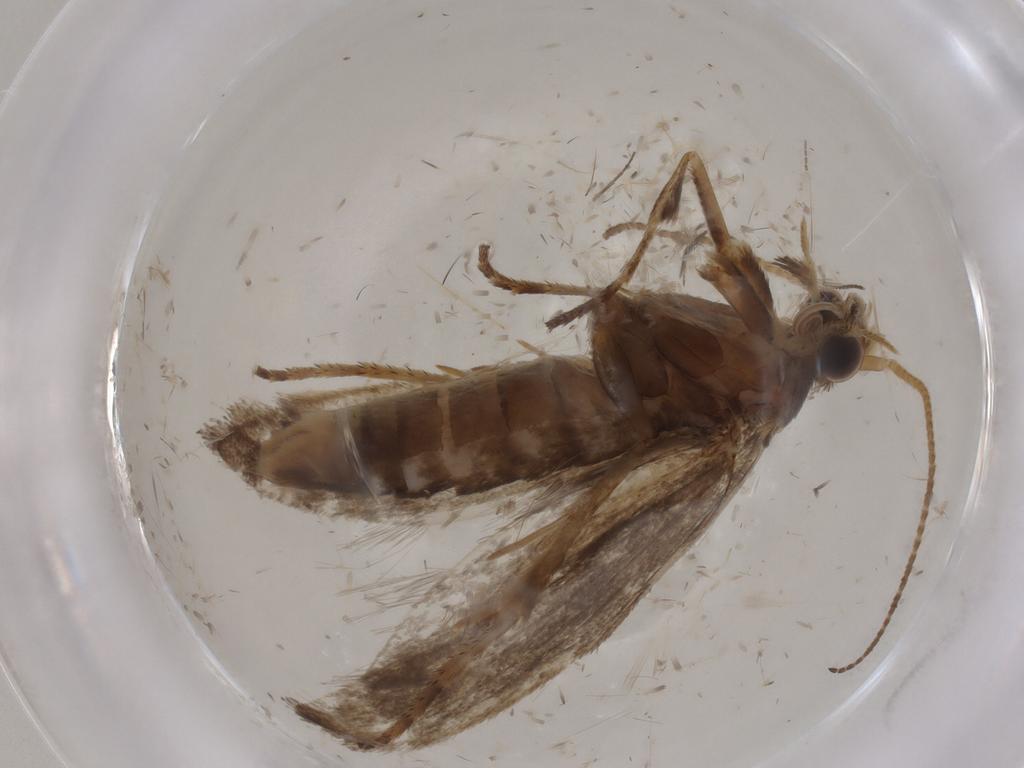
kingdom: Animalia
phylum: Arthropoda
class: Insecta
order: Lepidoptera
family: Plutellidae
